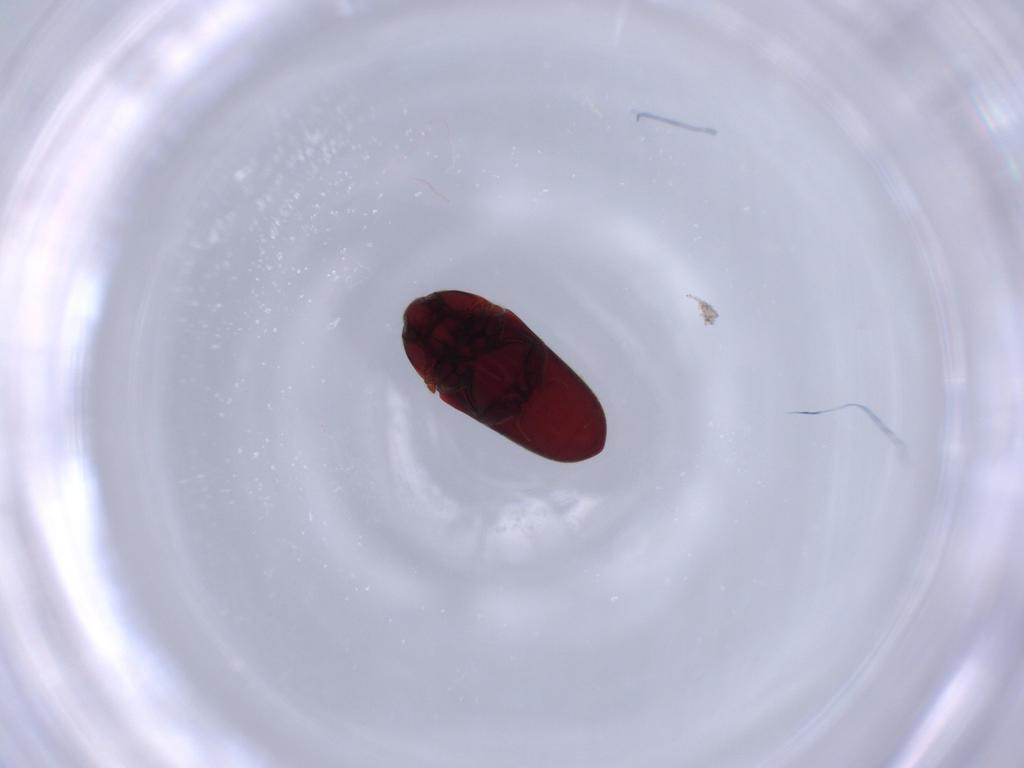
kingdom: Animalia
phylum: Arthropoda
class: Insecta
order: Coleoptera
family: Throscidae
